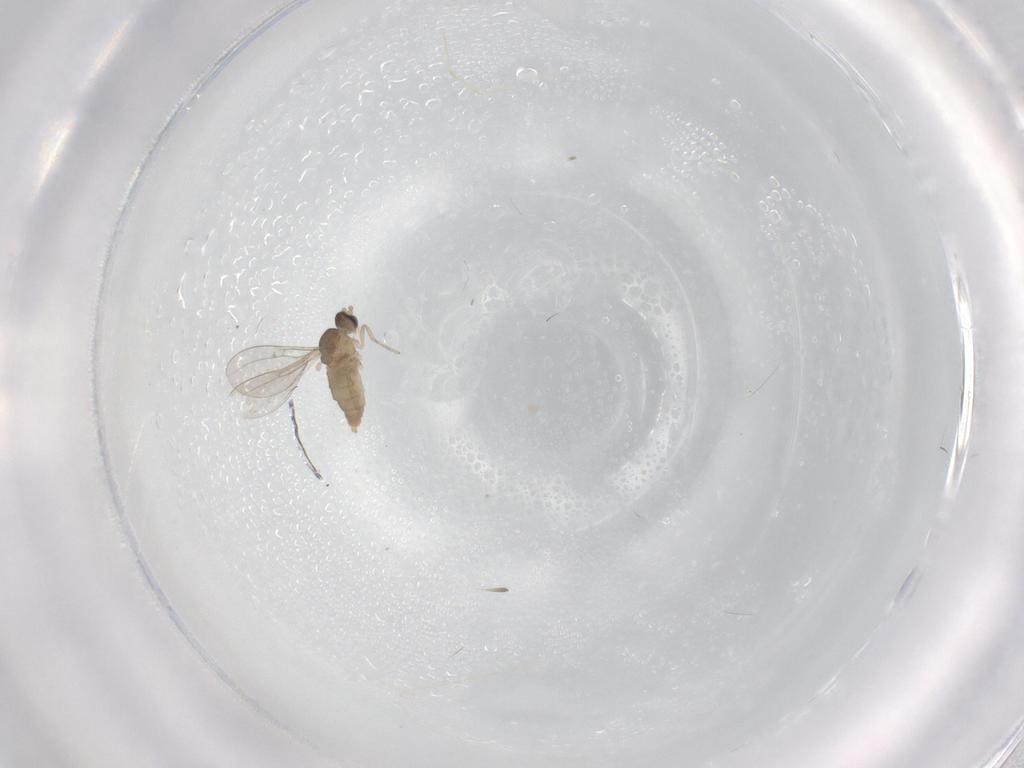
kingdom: Animalia
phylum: Arthropoda
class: Insecta
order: Diptera
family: Cecidomyiidae
